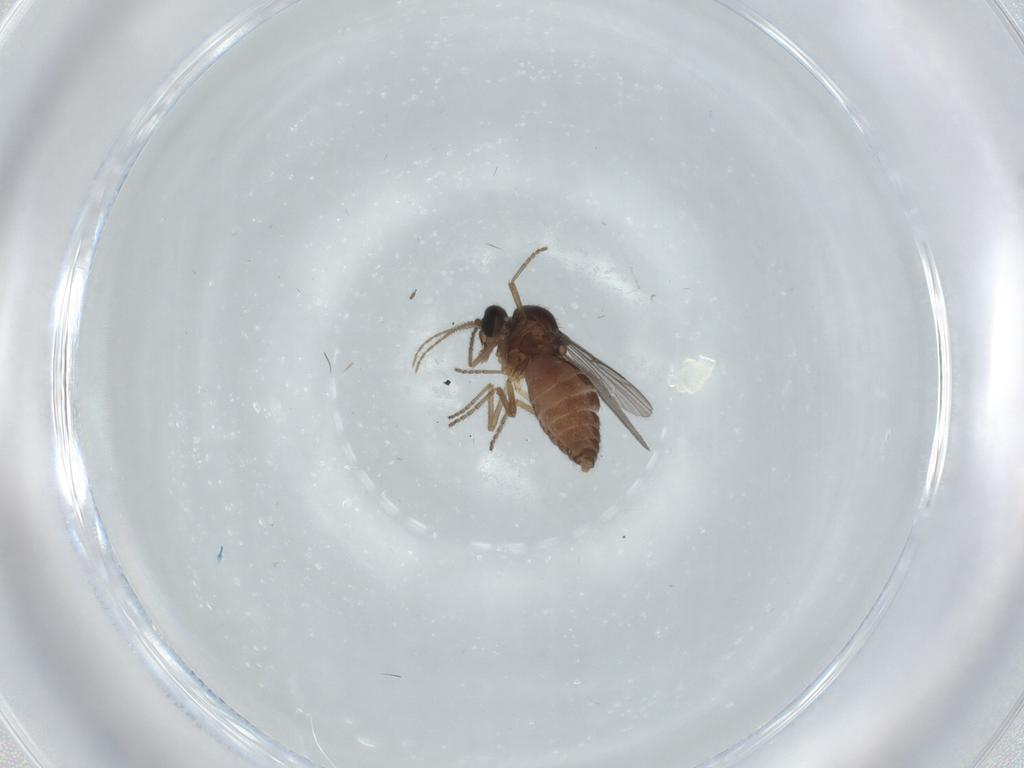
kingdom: Animalia
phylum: Arthropoda
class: Insecta
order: Diptera
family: Ceratopogonidae
